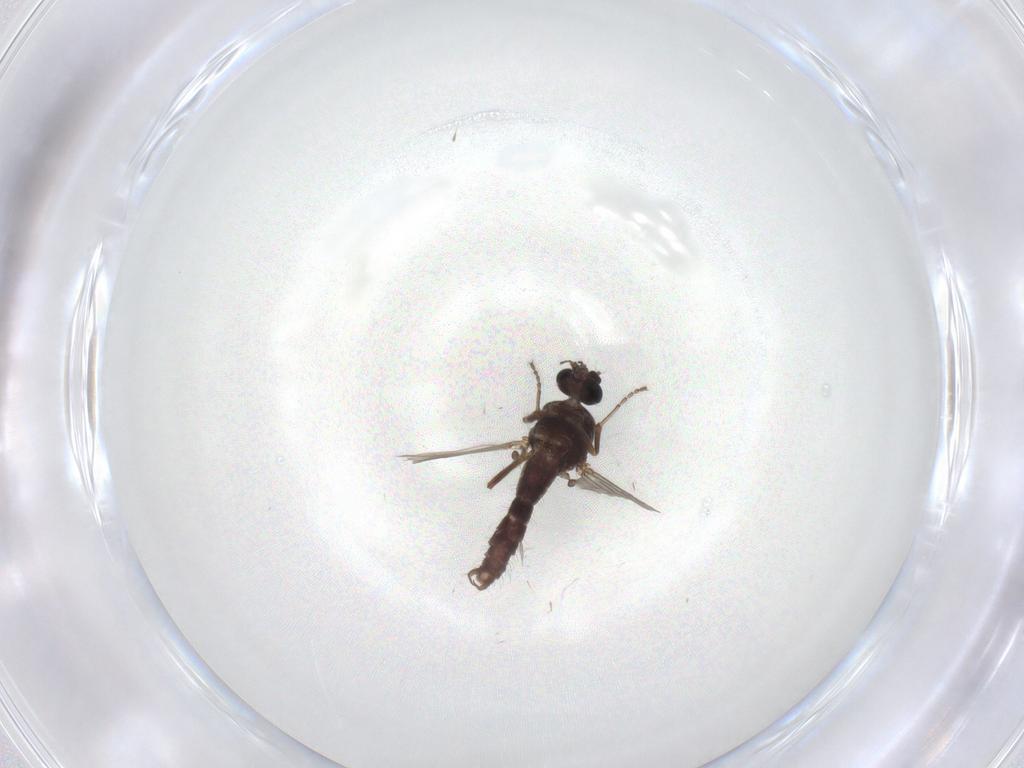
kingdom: Animalia
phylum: Arthropoda
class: Insecta
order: Diptera
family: Ceratopogonidae
